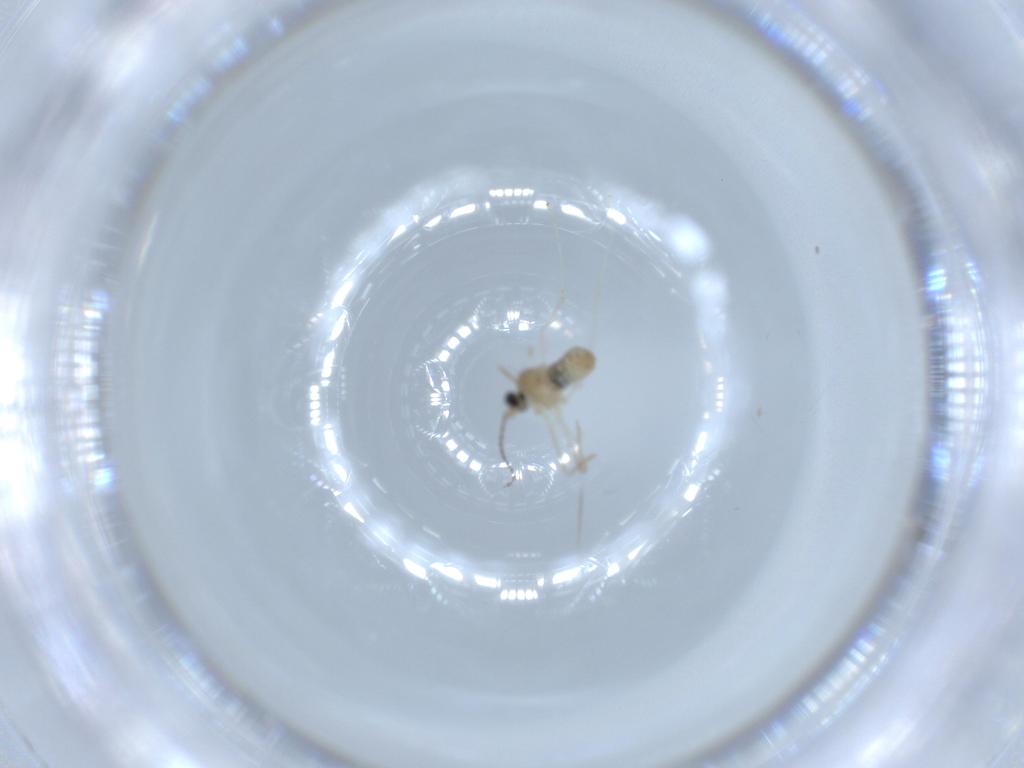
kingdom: Animalia
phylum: Arthropoda
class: Insecta
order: Diptera
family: Cecidomyiidae
